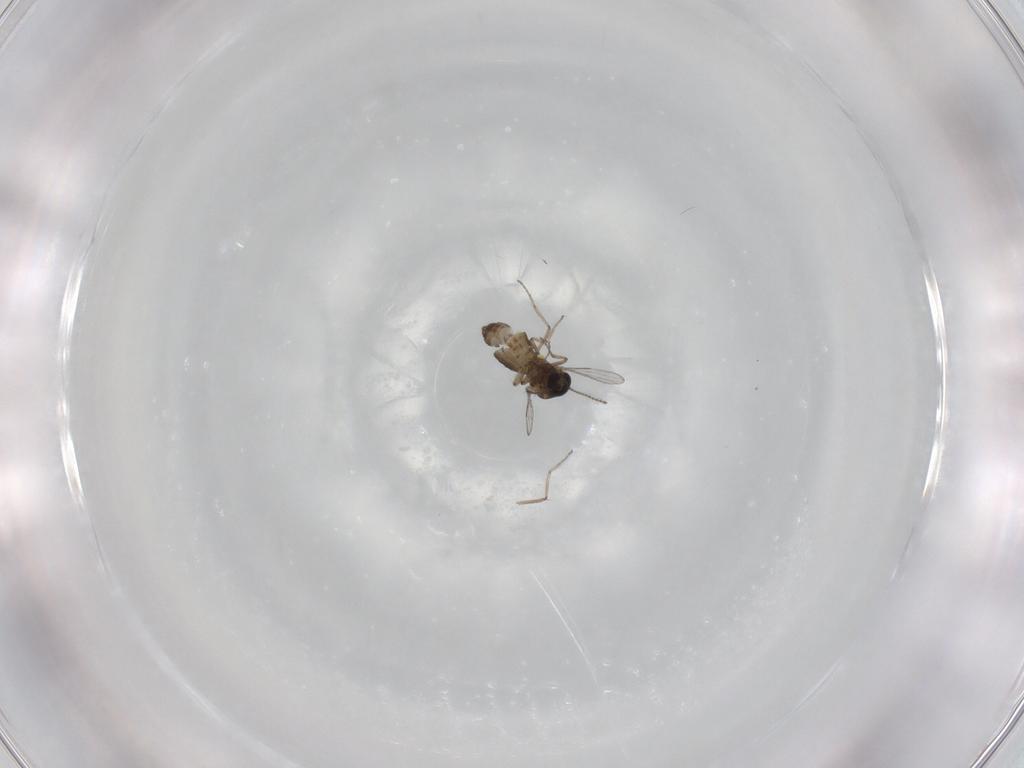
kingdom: Animalia
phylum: Arthropoda
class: Insecta
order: Diptera
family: Ceratopogonidae
